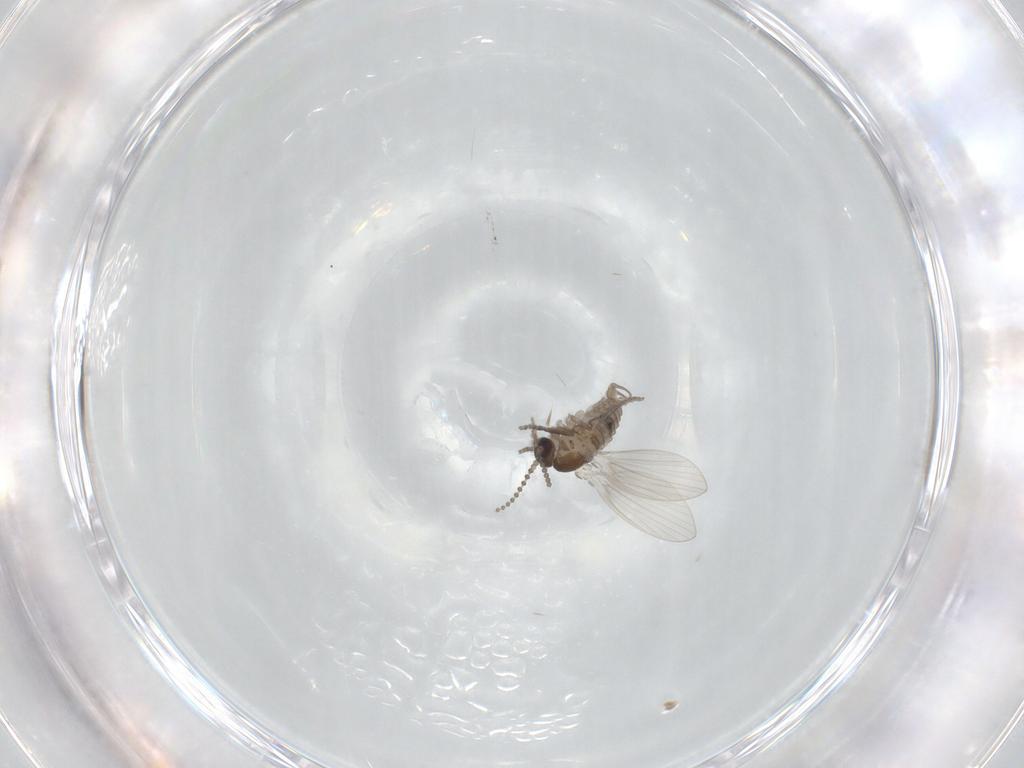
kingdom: Animalia
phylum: Arthropoda
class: Insecta
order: Diptera
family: Psychodidae
